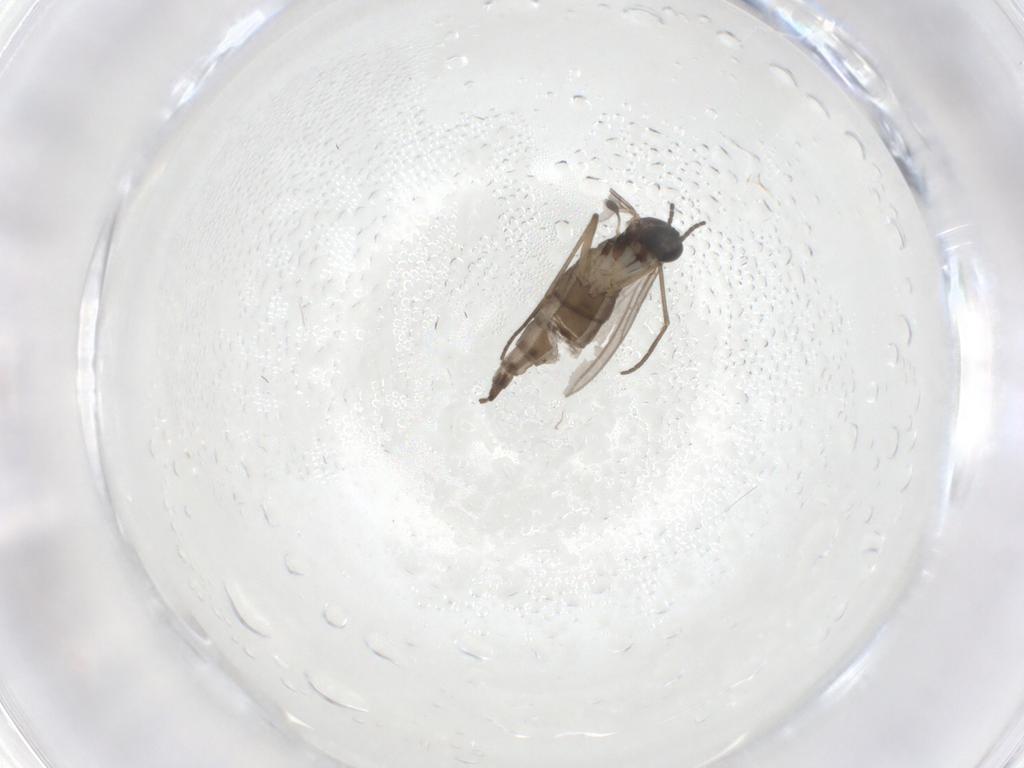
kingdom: Animalia
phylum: Arthropoda
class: Insecta
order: Diptera
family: Sciaridae
